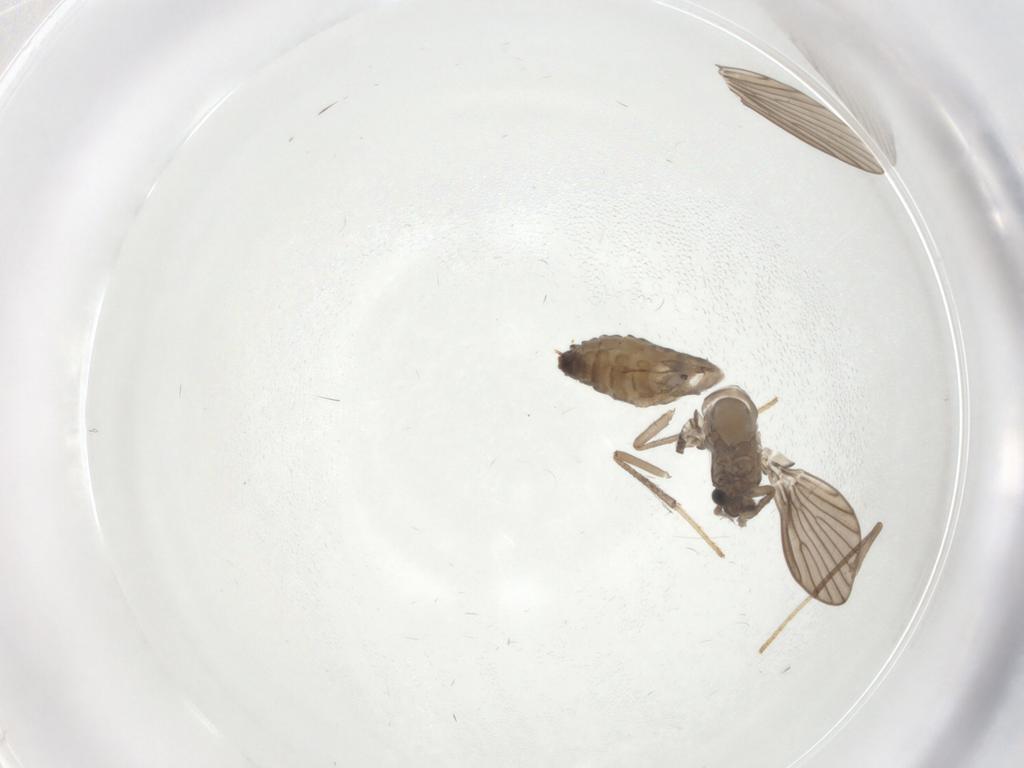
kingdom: Animalia
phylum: Arthropoda
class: Insecta
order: Diptera
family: Psychodidae
